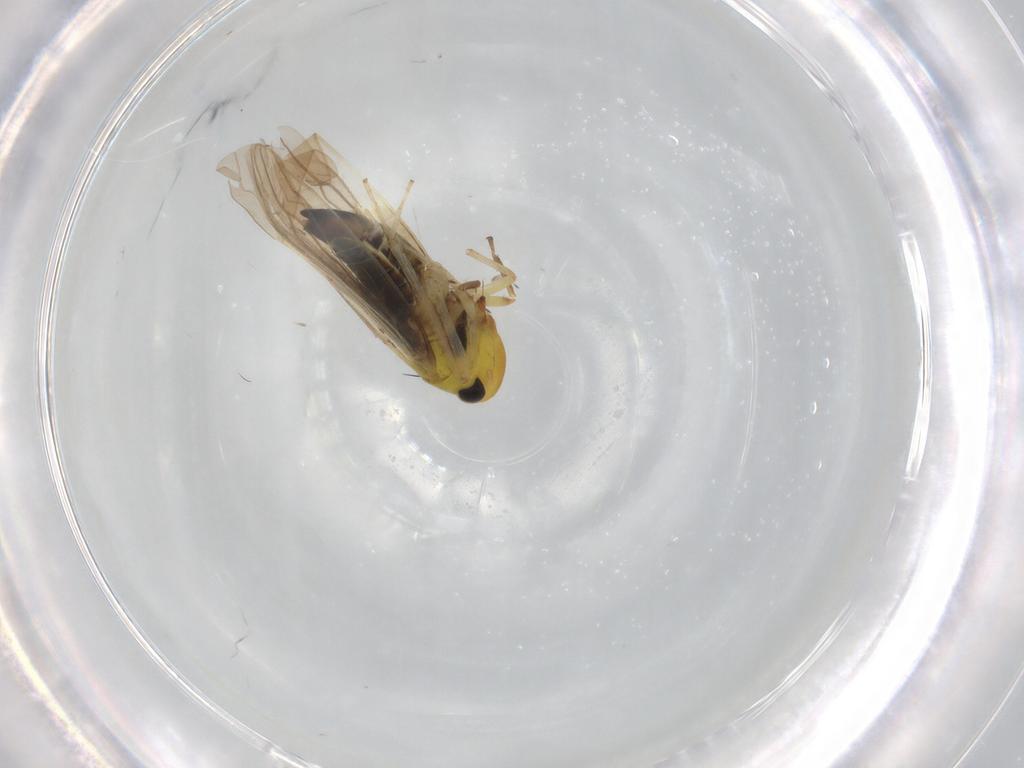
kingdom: Animalia
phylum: Arthropoda
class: Insecta
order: Hemiptera
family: Cicadellidae
